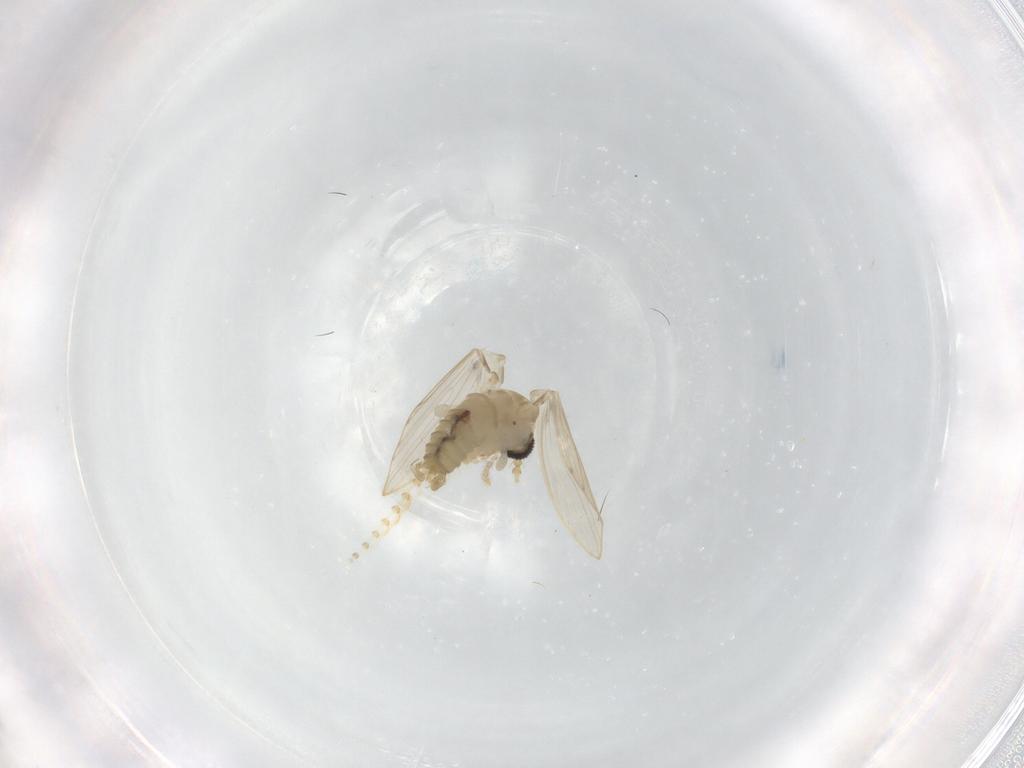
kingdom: Animalia
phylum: Arthropoda
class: Insecta
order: Diptera
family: Psychodidae
